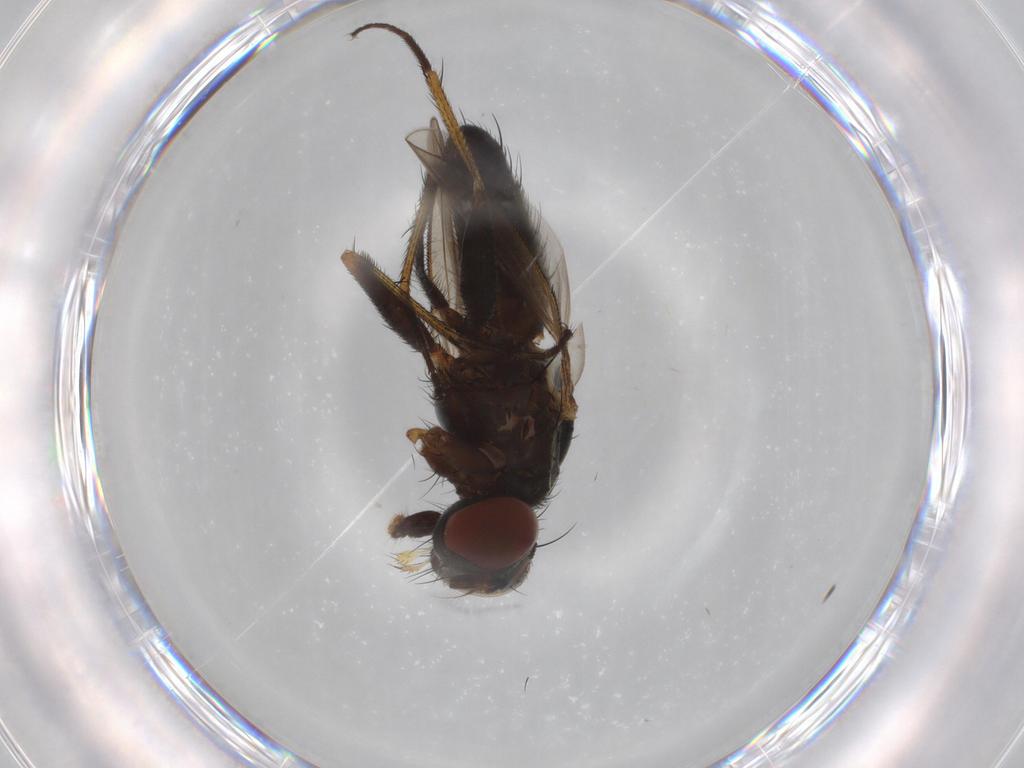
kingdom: Animalia
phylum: Arthropoda
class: Insecta
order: Diptera
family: Muscidae
